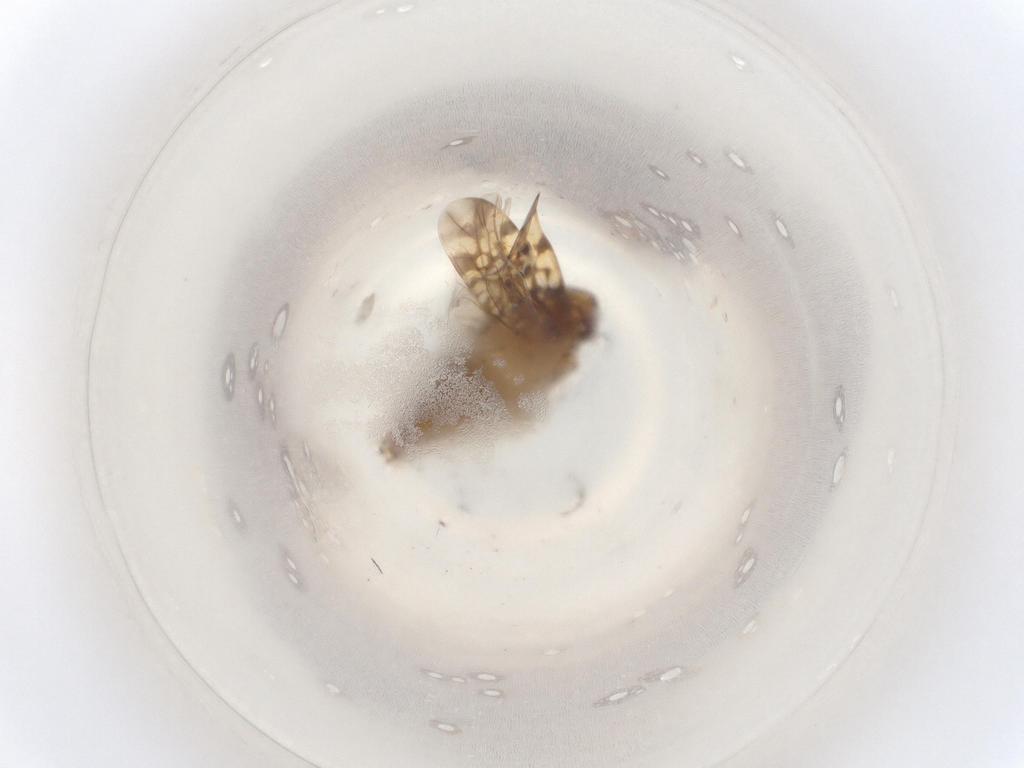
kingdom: Animalia
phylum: Arthropoda
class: Insecta
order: Hemiptera
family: Cicadellidae
